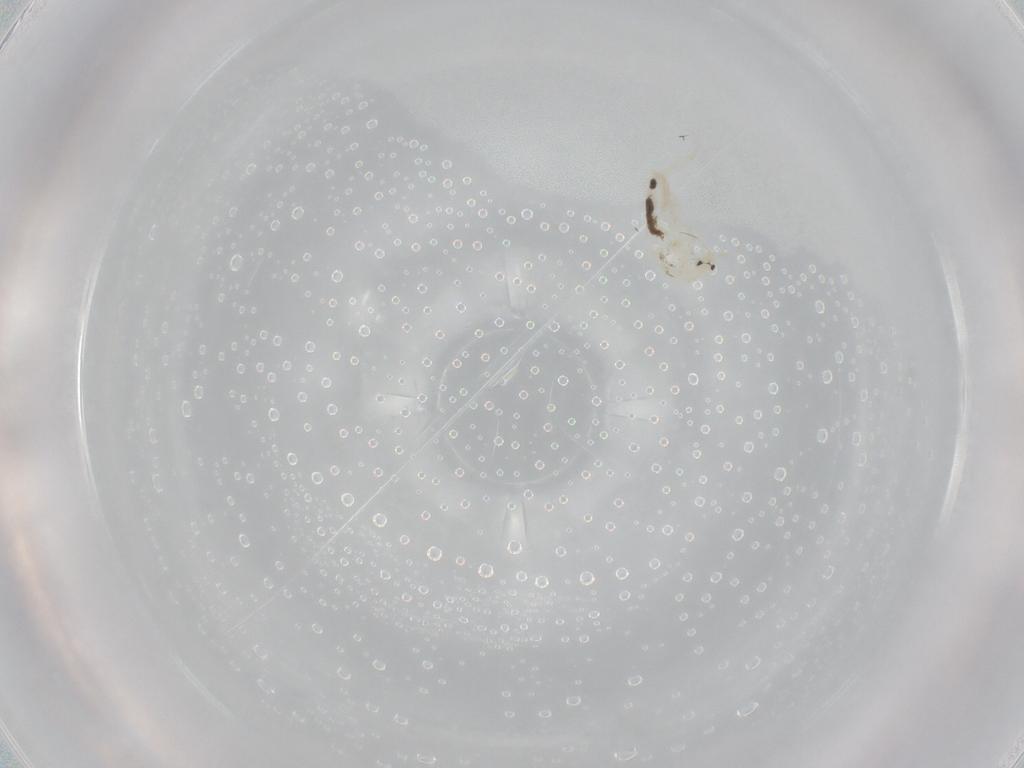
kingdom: Animalia
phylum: Arthropoda
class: Collembola
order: Entomobryomorpha
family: Entomobryidae
